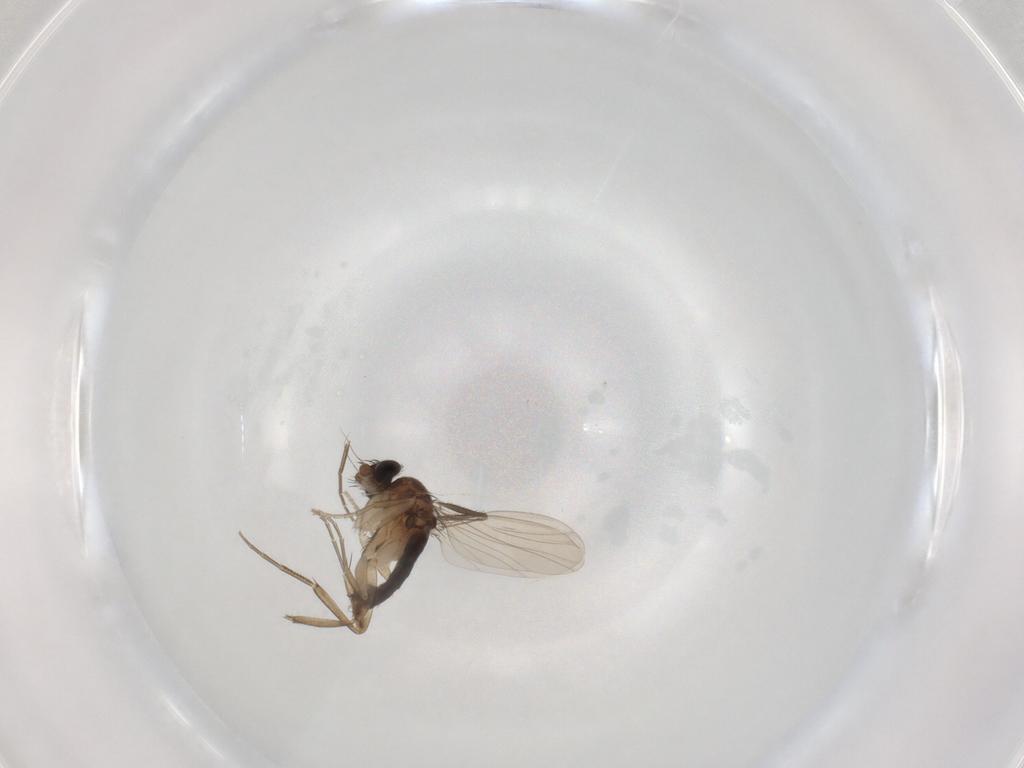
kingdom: Animalia
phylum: Arthropoda
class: Insecta
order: Diptera
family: Phoridae
